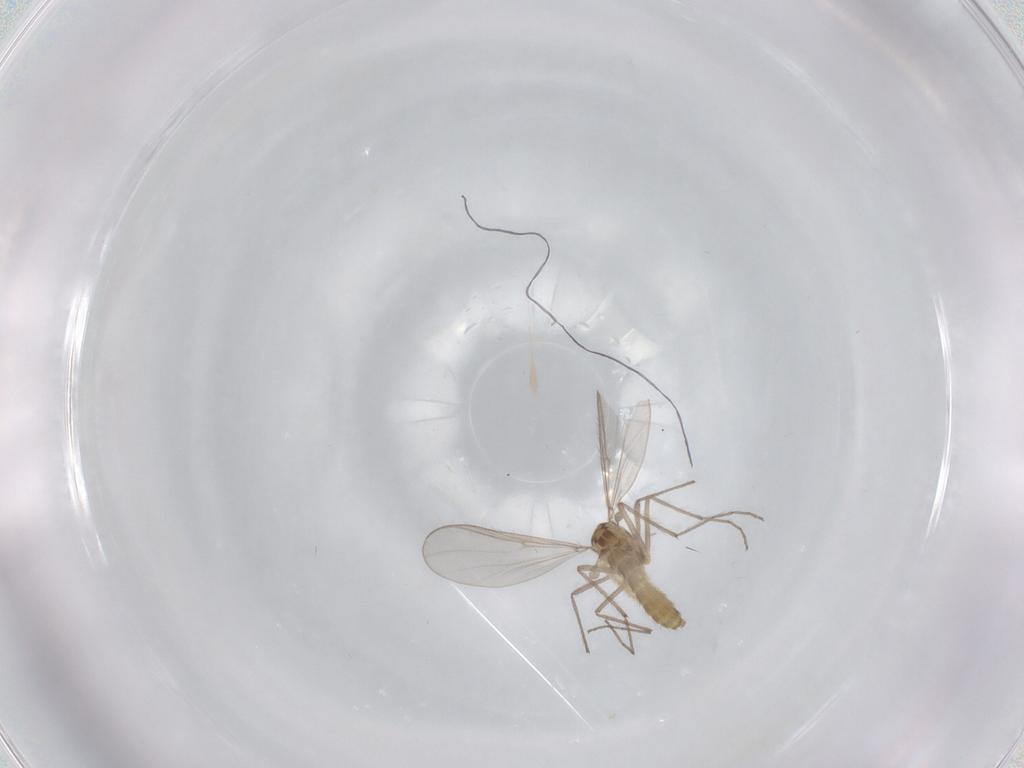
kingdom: Animalia
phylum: Arthropoda
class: Insecta
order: Diptera
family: Chironomidae
